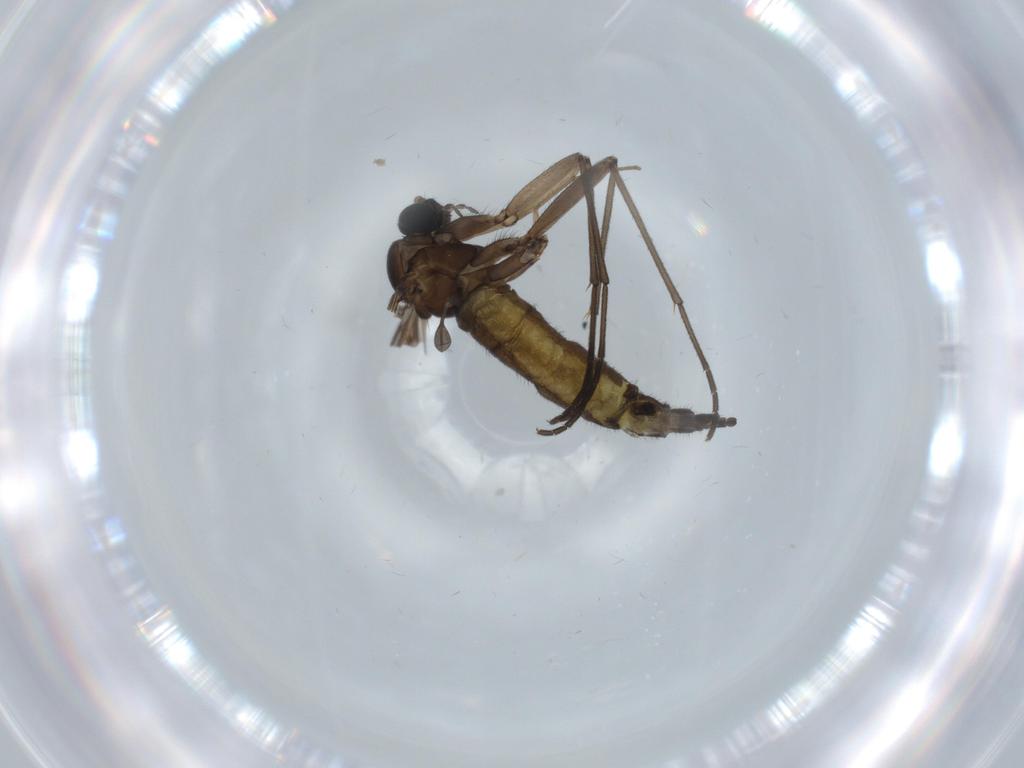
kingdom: Animalia
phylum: Arthropoda
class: Insecta
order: Diptera
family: Sciaridae
